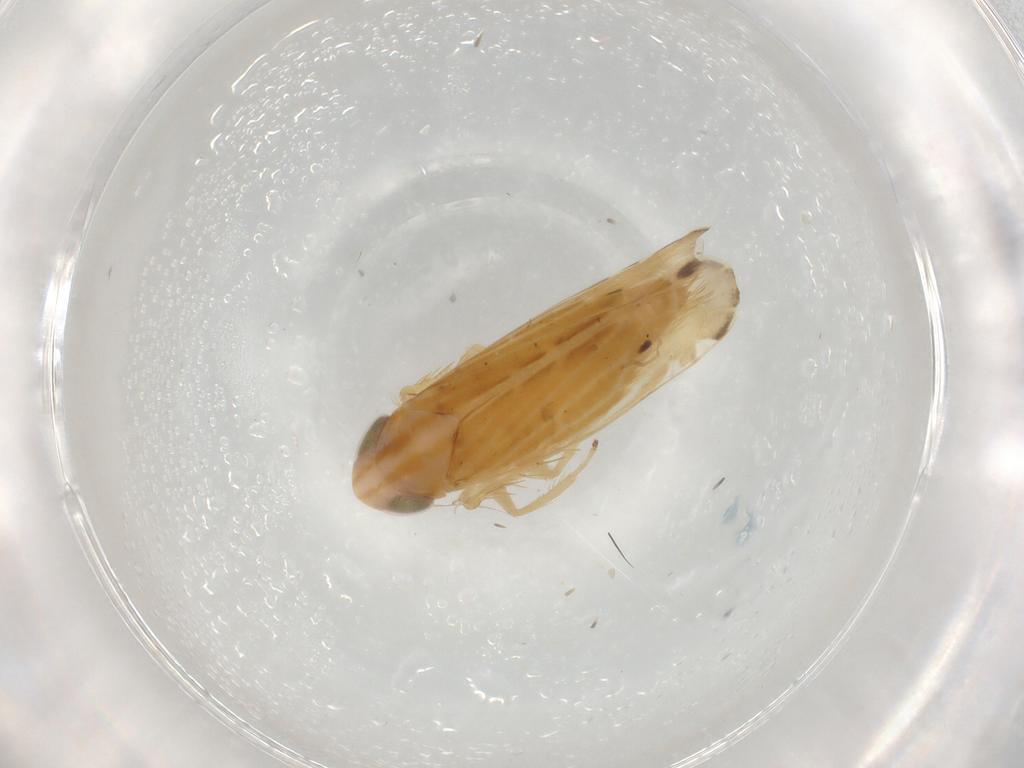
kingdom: Animalia
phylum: Arthropoda
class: Insecta
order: Hemiptera
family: Cicadellidae
